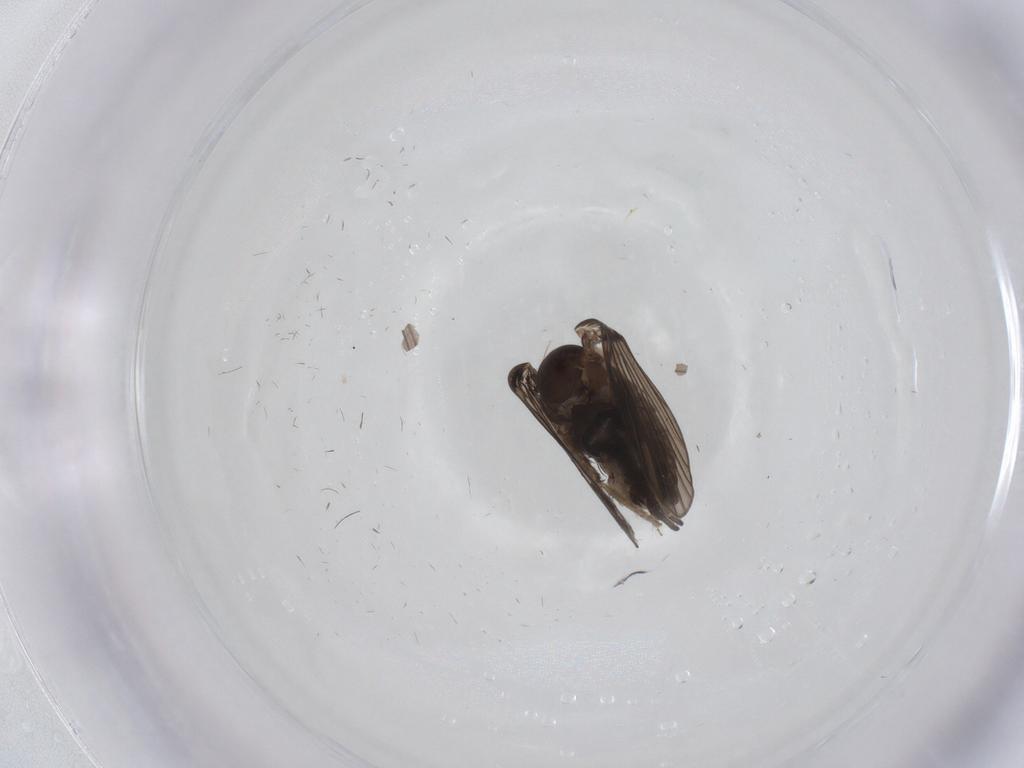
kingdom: Animalia
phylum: Arthropoda
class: Insecta
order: Diptera
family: Psychodidae
